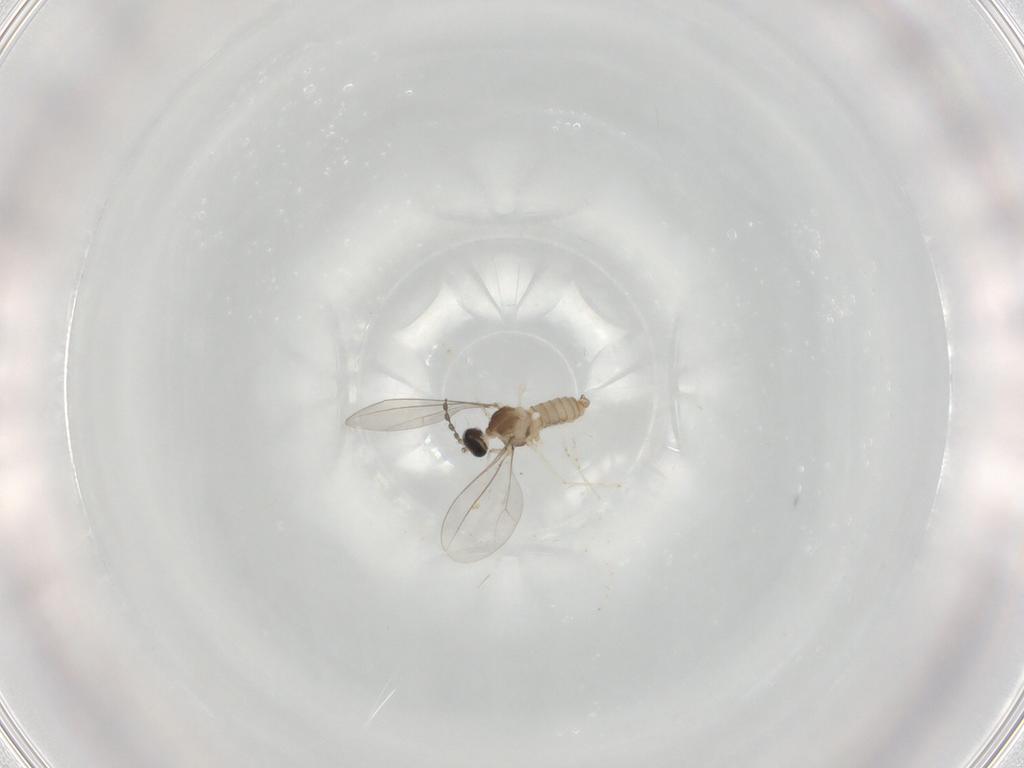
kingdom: Animalia
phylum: Arthropoda
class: Insecta
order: Diptera
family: Cecidomyiidae
